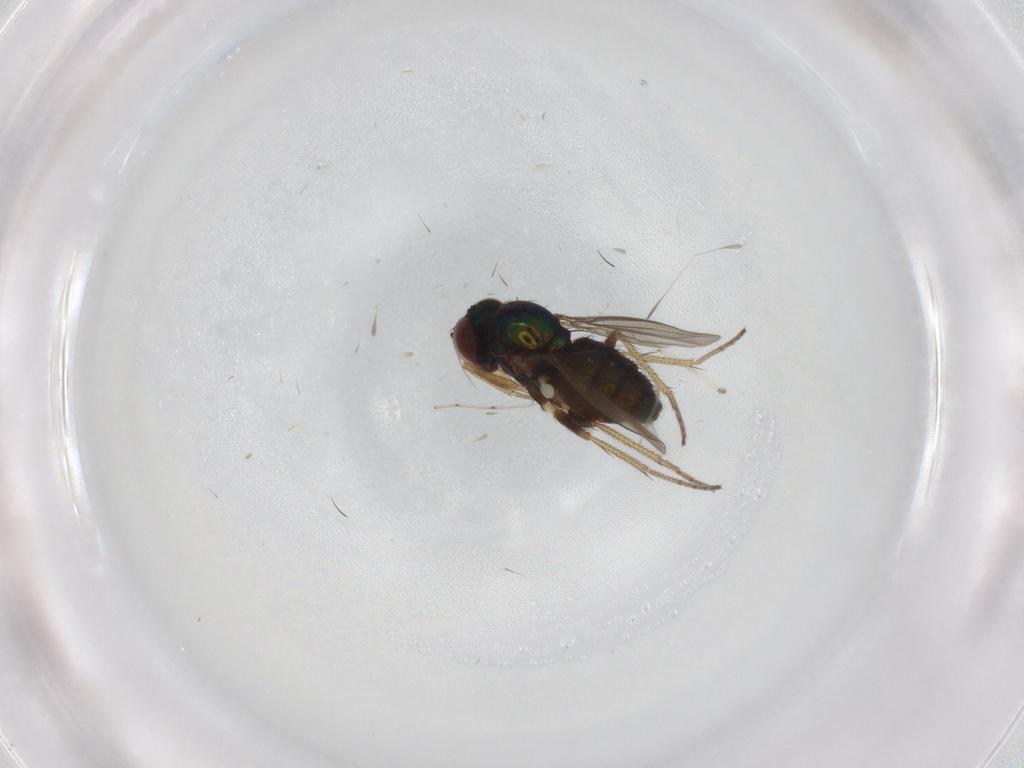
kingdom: Animalia
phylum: Arthropoda
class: Insecta
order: Diptera
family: Cecidomyiidae
